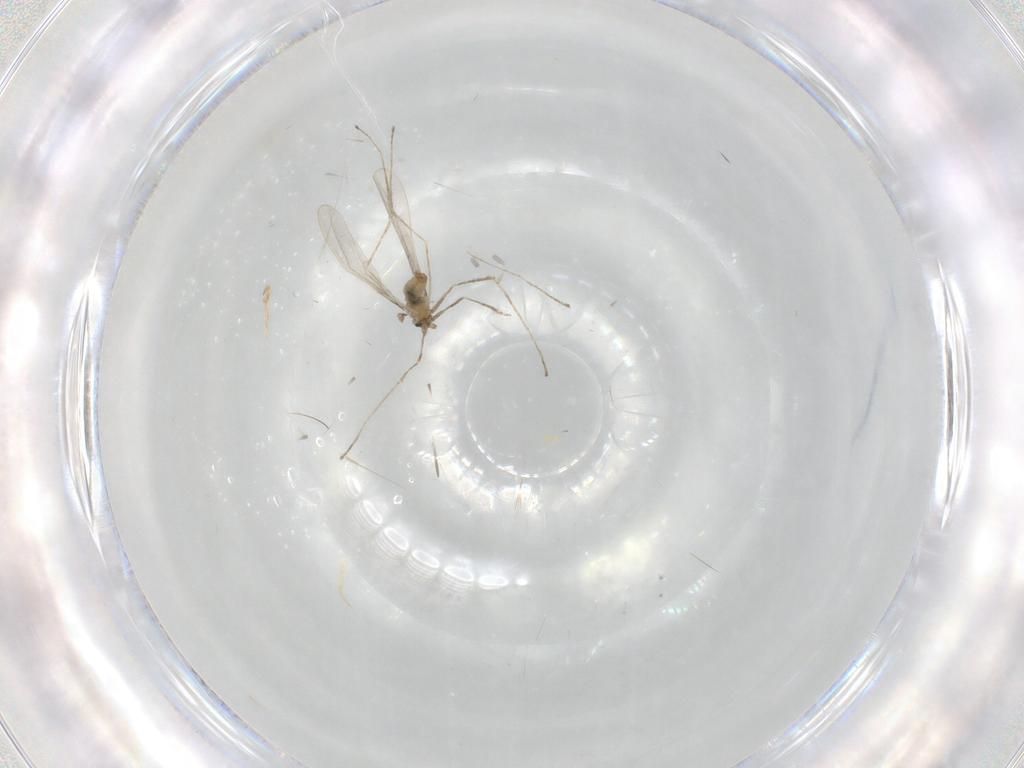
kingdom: Animalia
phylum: Arthropoda
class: Insecta
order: Diptera
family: Cecidomyiidae
